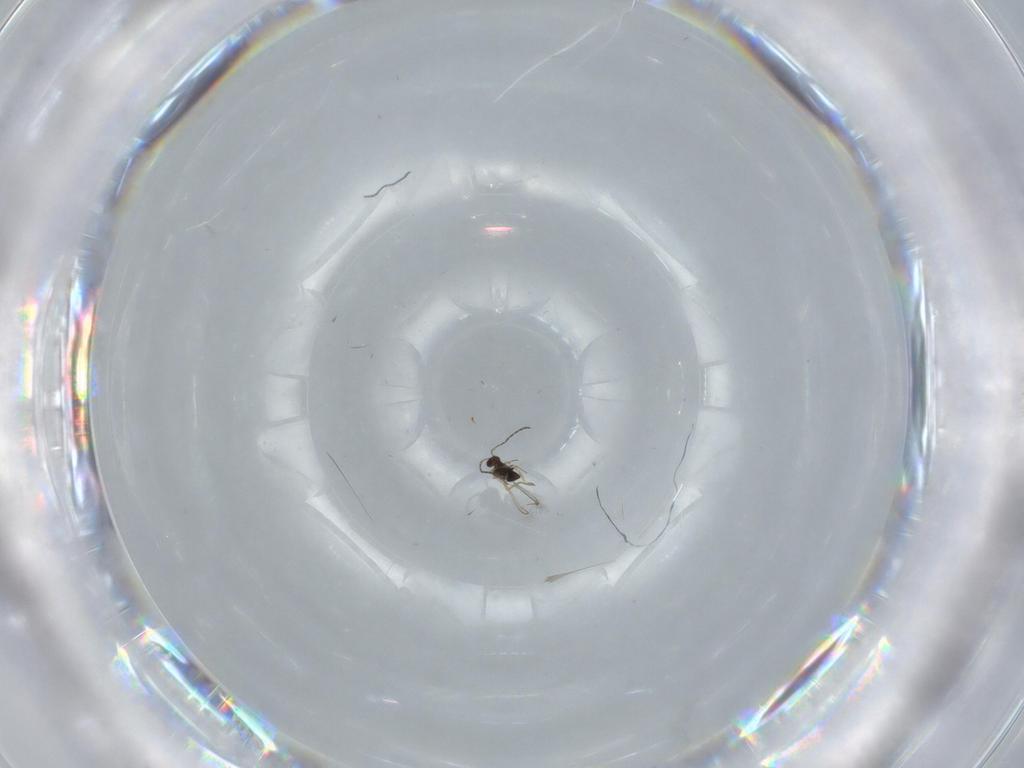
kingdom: Animalia
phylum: Arthropoda
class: Insecta
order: Hymenoptera
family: Mymaridae
